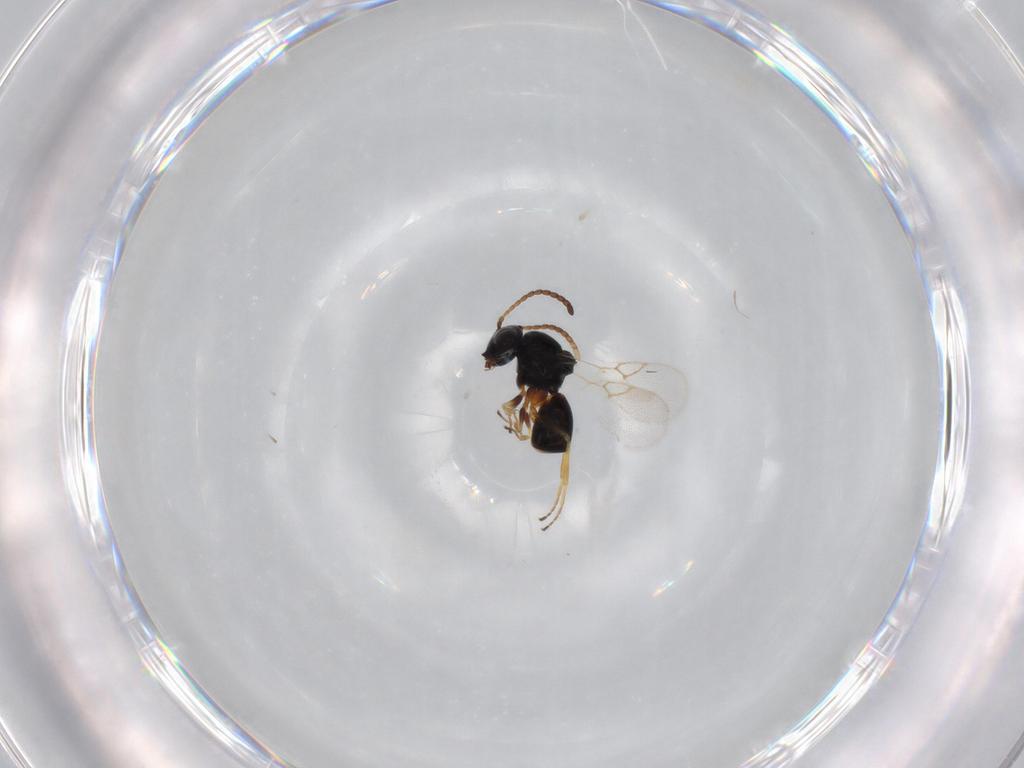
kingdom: Animalia
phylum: Arthropoda
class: Insecta
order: Hymenoptera
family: Figitidae
